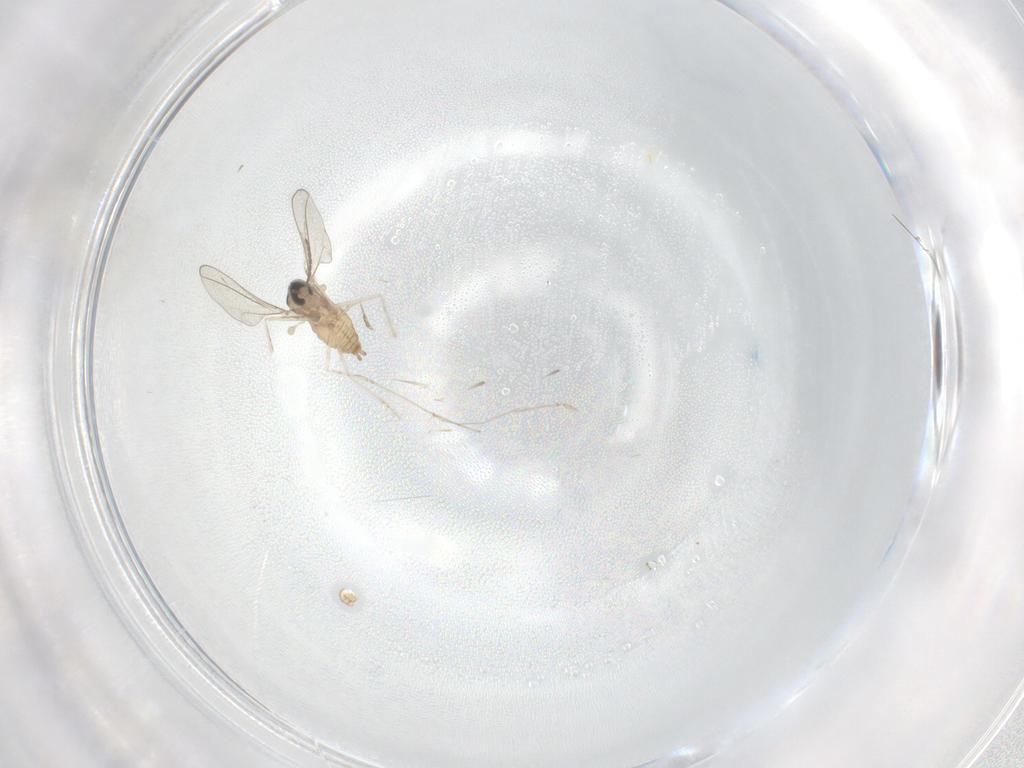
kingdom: Animalia
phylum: Arthropoda
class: Insecta
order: Diptera
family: Cecidomyiidae
